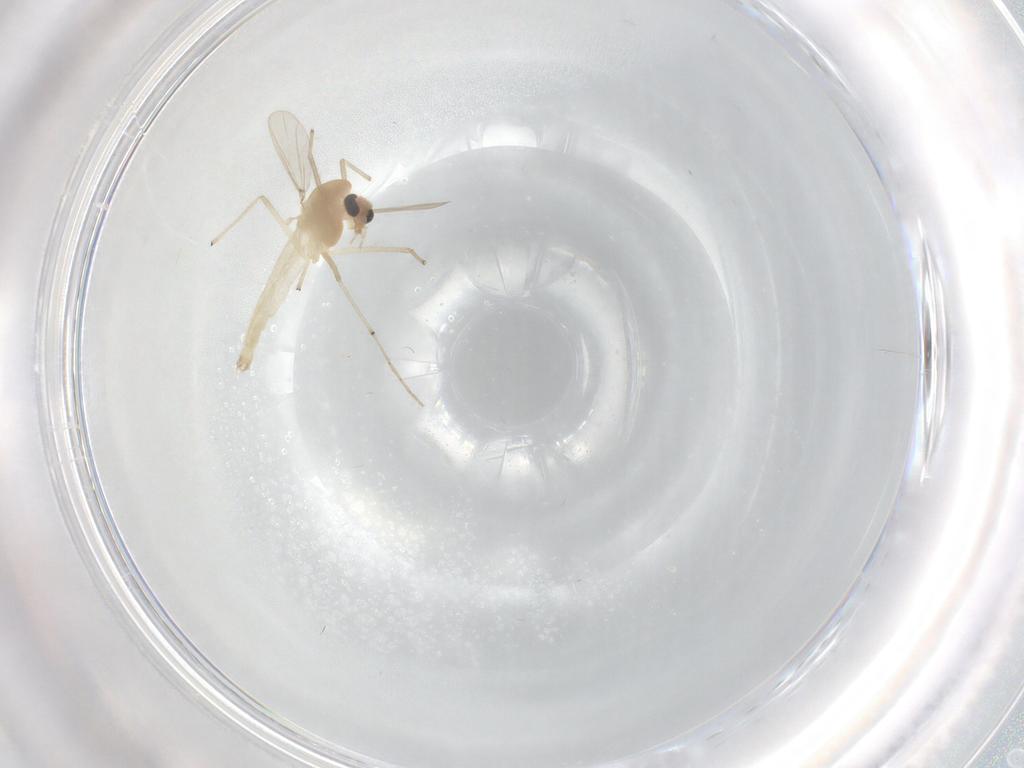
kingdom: Animalia
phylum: Arthropoda
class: Insecta
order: Diptera
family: Chironomidae
